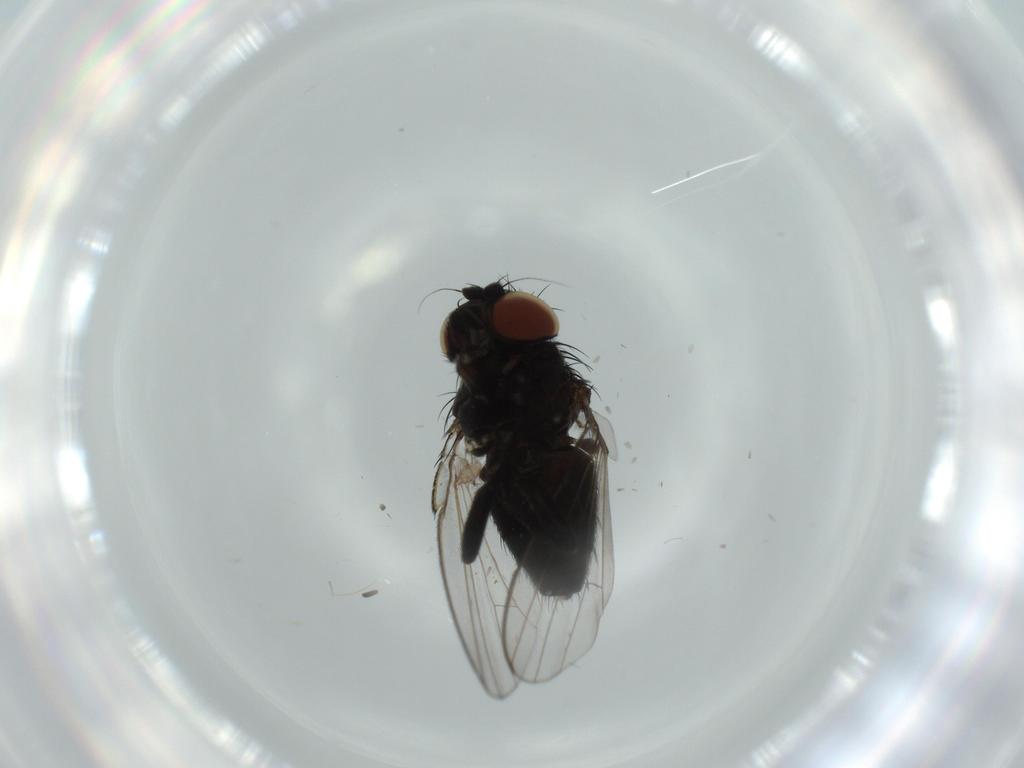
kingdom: Animalia
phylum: Arthropoda
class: Insecta
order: Diptera
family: Milichiidae
